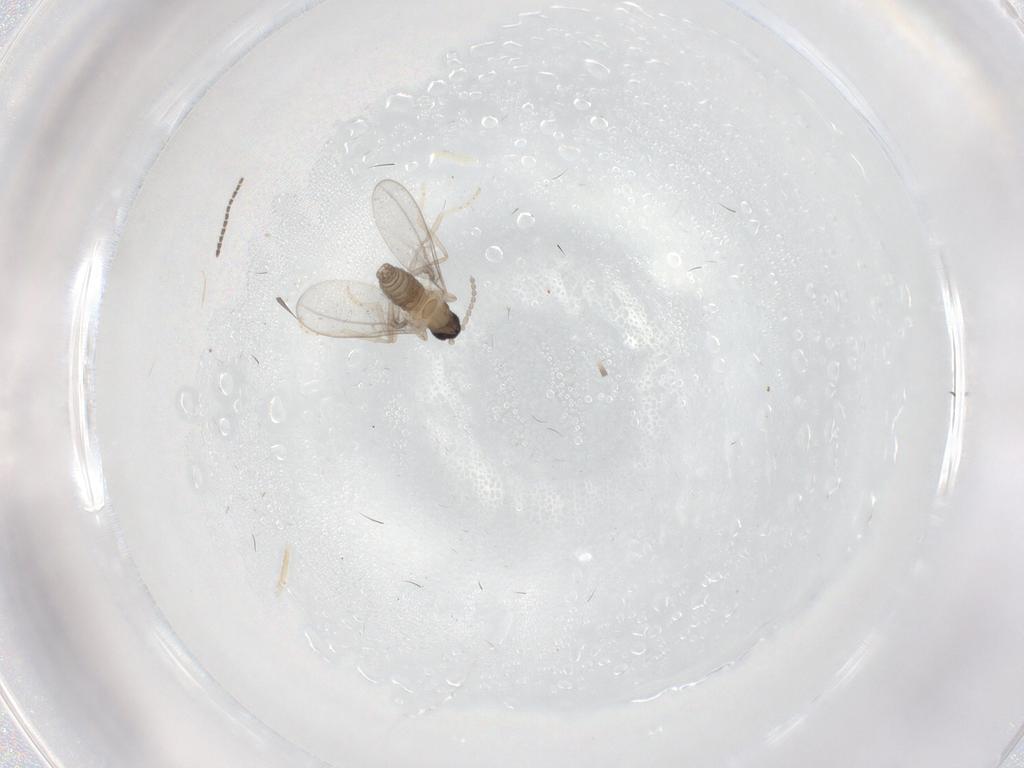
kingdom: Animalia
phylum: Arthropoda
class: Insecta
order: Diptera
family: Cecidomyiidae
